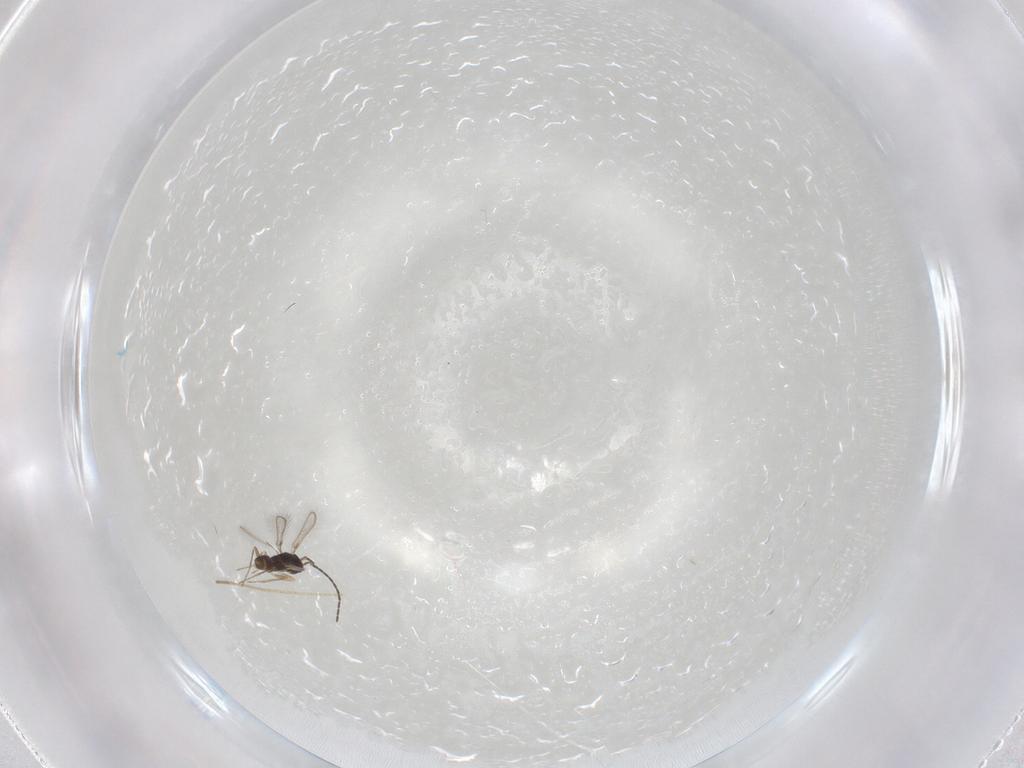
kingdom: Animalia
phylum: Arthropoda
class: Insecta
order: Hymenoptera
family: Mymaridae
